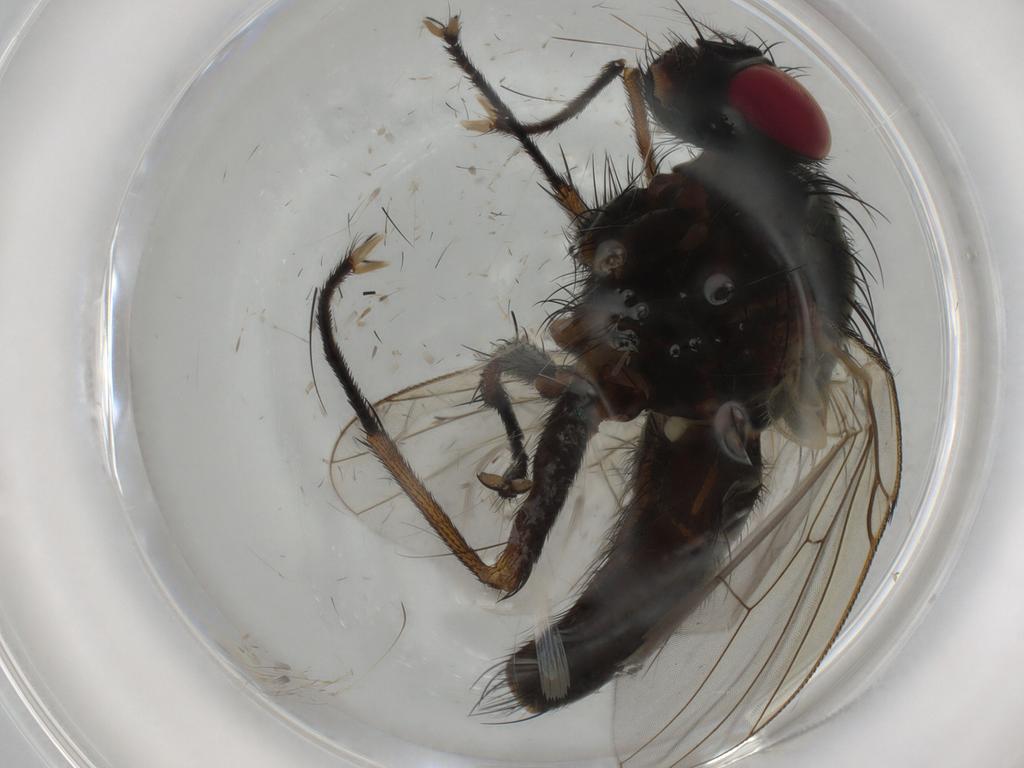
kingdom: Animalia
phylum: Arthropoda
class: Insecta
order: Diptera
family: Muscidae
